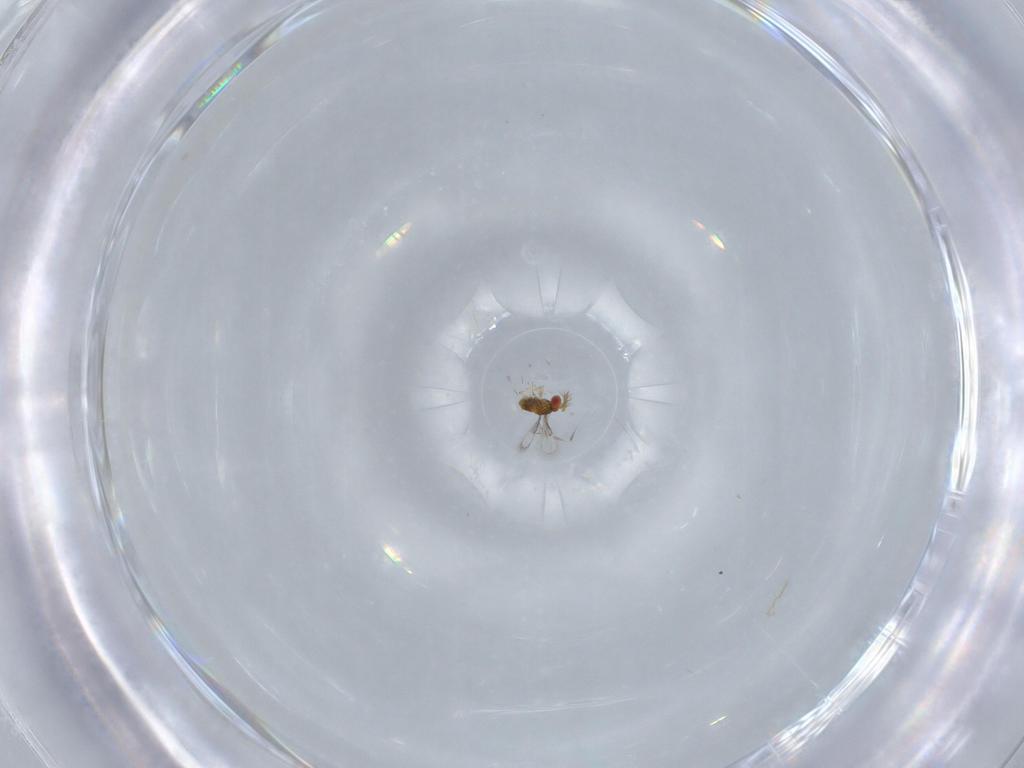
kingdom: Animalia
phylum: Arthropoda
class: Insecta
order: Hymenoptera
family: Trichogrammatidae
